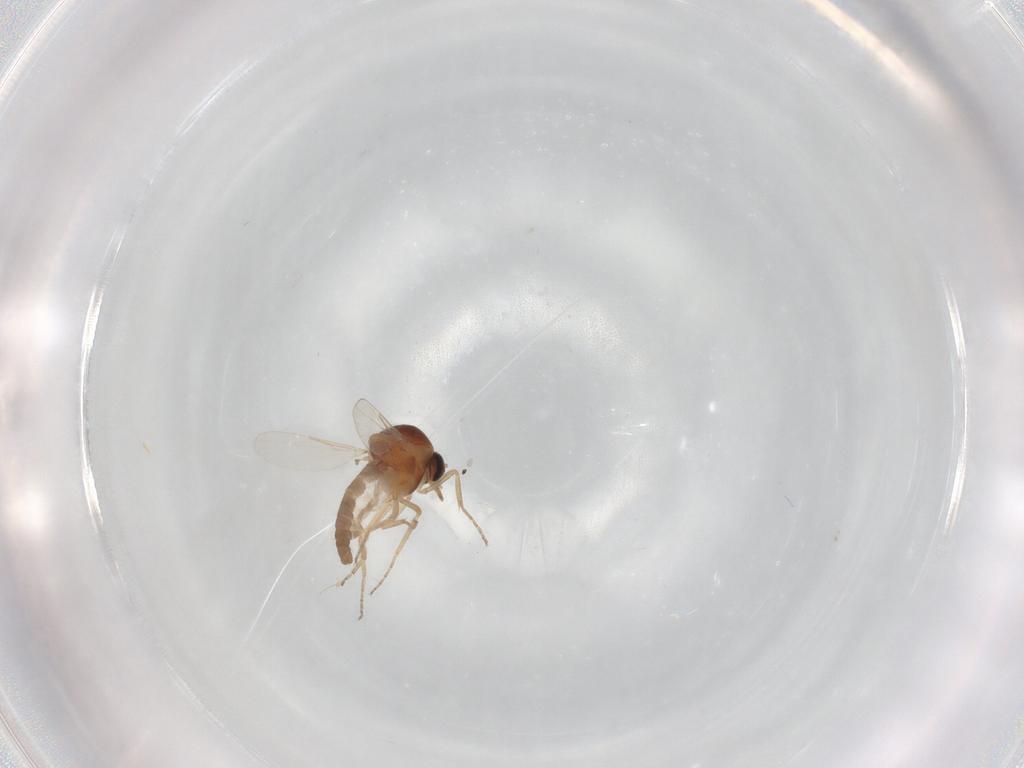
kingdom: Animalia
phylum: Arthropoda
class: Insecta
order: Diptera
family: Ceratopogonidae
